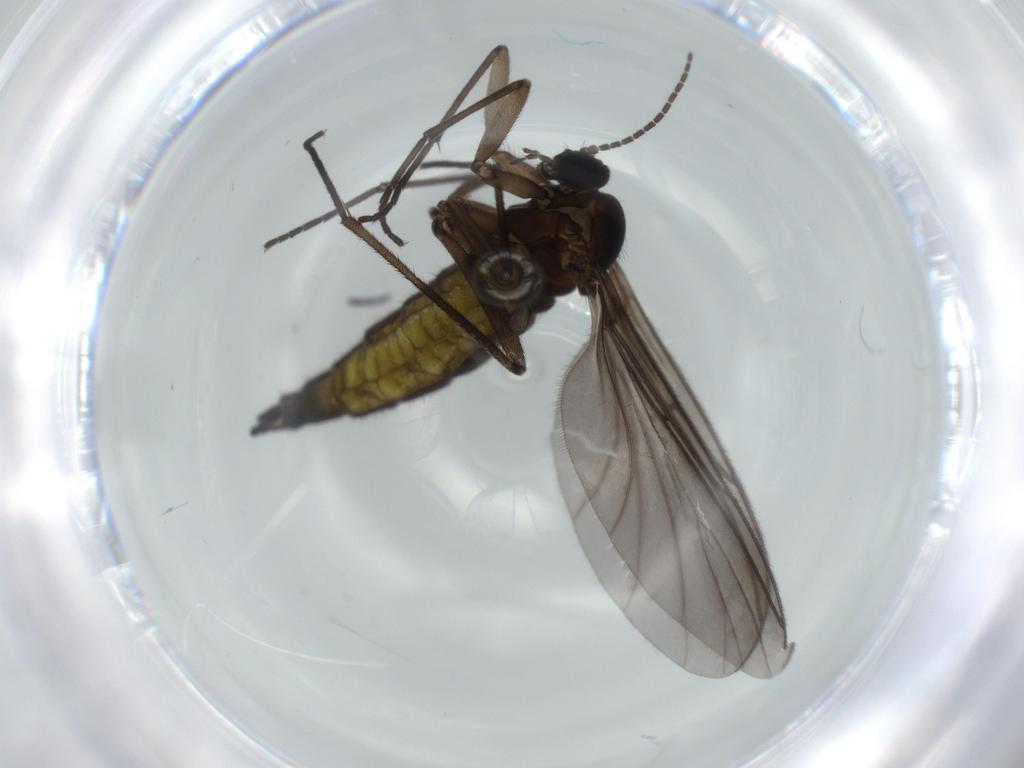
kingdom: Animalia
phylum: Arthropoda
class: Insecta
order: Diptera
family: Sciaridae
